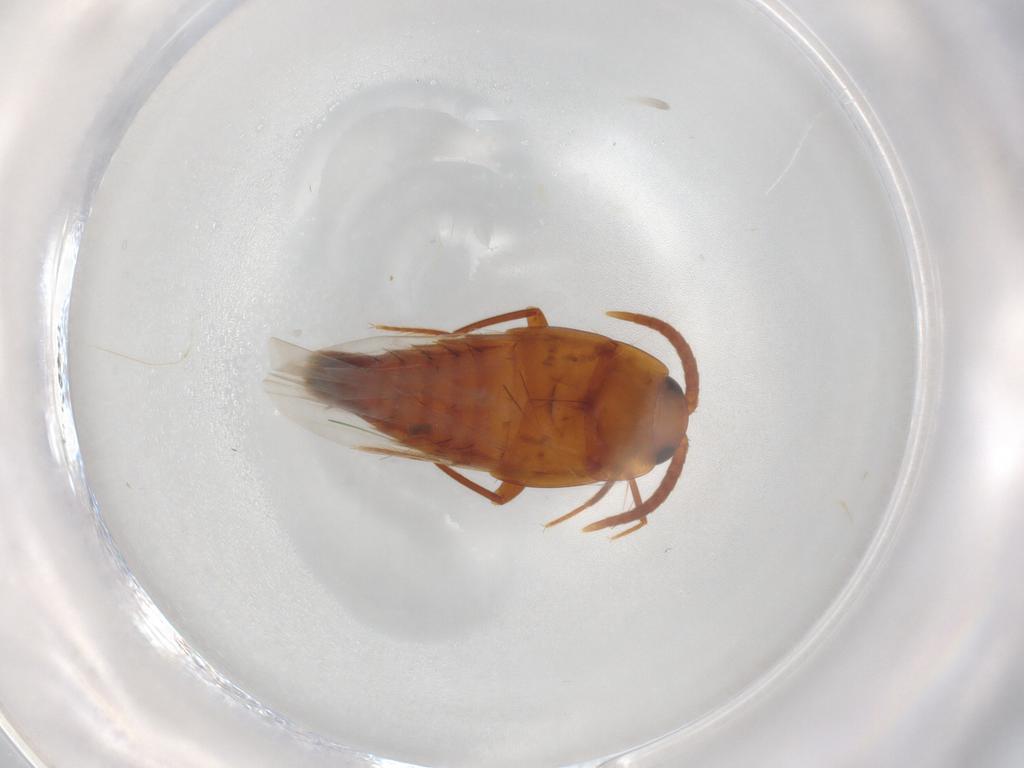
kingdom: Animalia
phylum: Arthropoda
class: Insecta
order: Coleoptera
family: Staphylinidae
